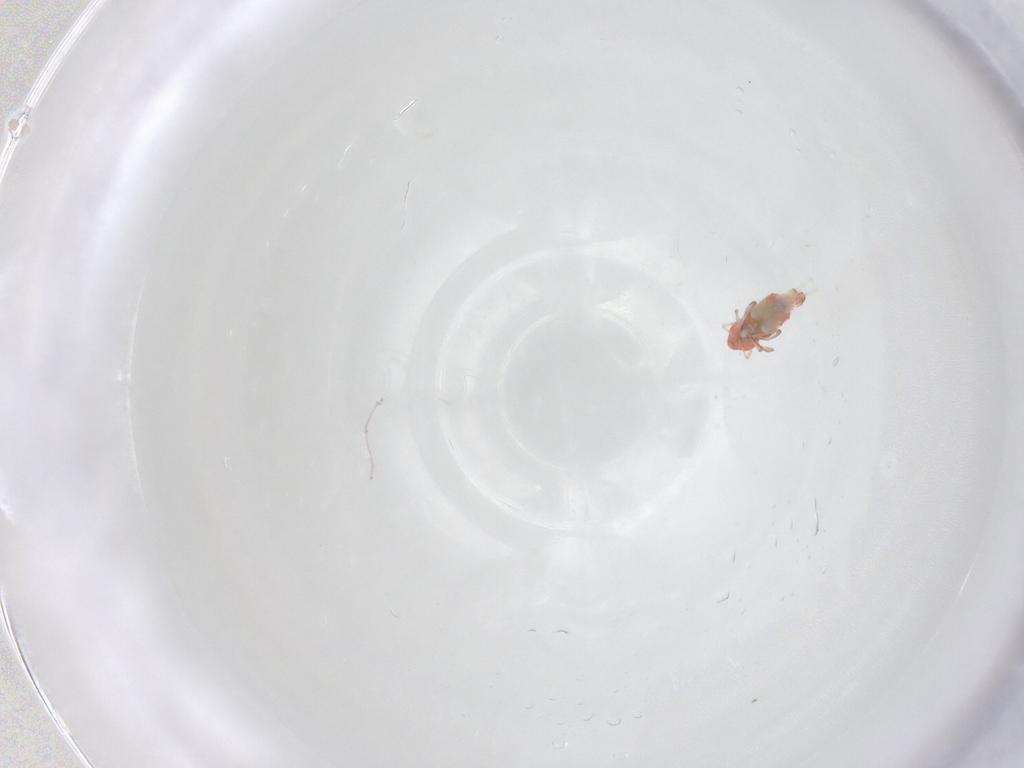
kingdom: Animalia
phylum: Arthropoda
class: Collembola
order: Symphypleona
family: Bourletiellidae
